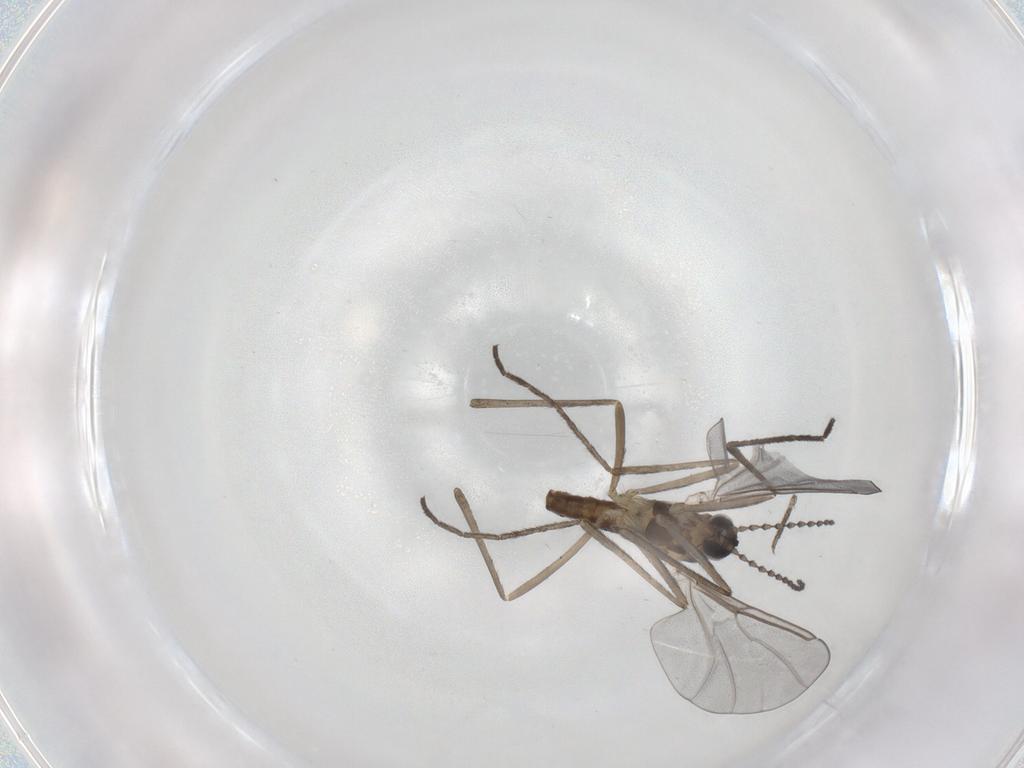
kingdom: Animalia
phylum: Arthropoda
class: Insecta
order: Diptera
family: Cecidomyiidae
